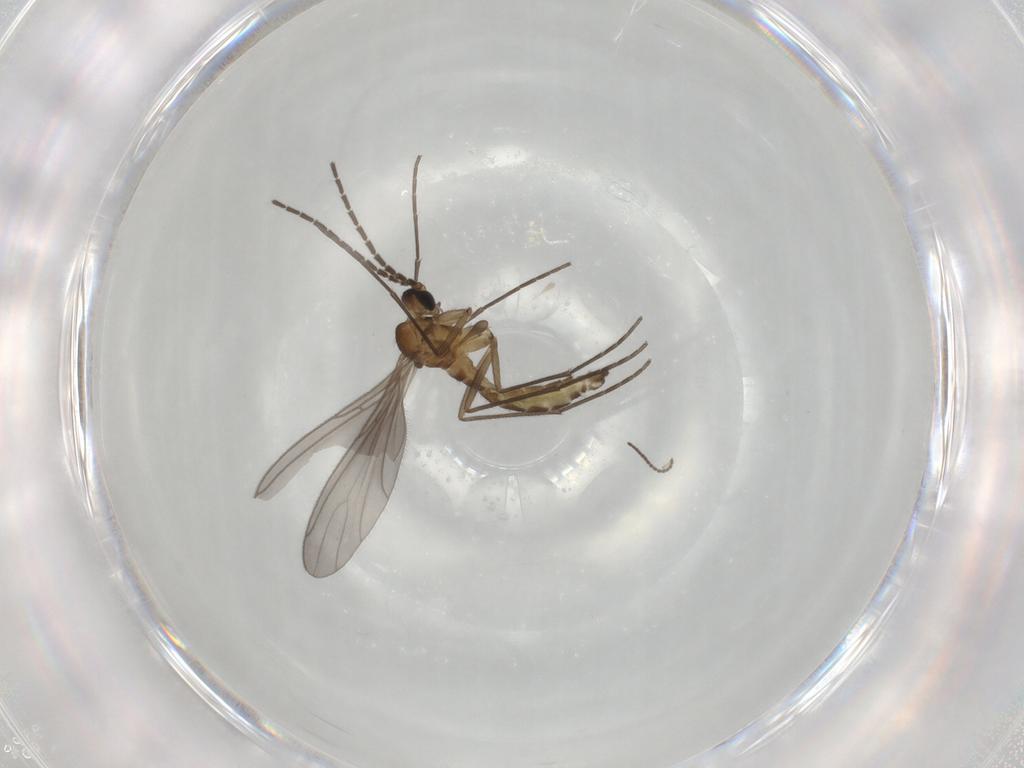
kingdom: Animalia
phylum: Arthropoda
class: Insecta
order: Diptera
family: Sciaridae
